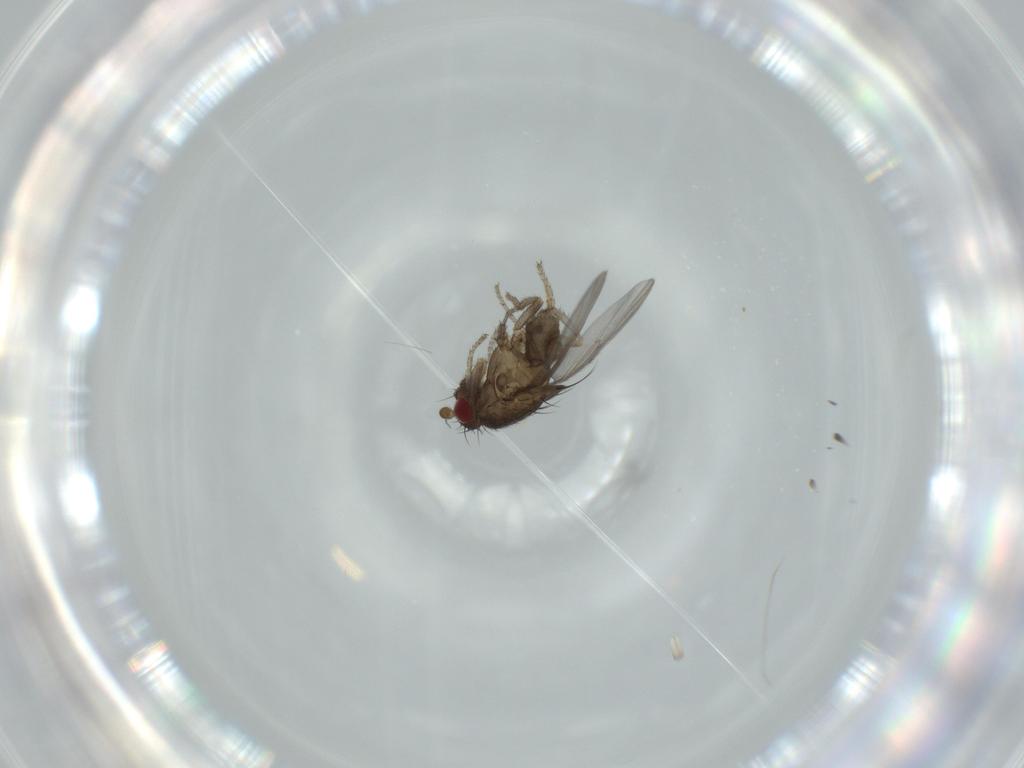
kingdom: Animalia
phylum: Arthropoda
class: Insecta
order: Diptera
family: Sphaeroceridae
